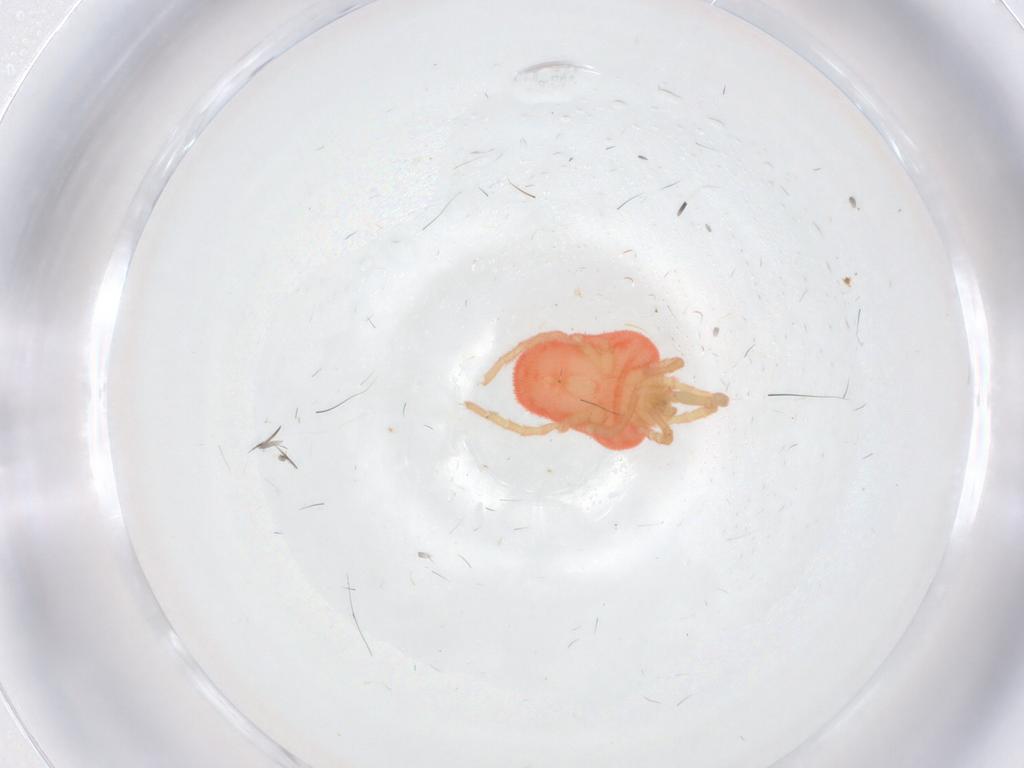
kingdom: Animalia
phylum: Arthropoda
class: Arachnida
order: Trombidiformes
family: Trombidiidae
